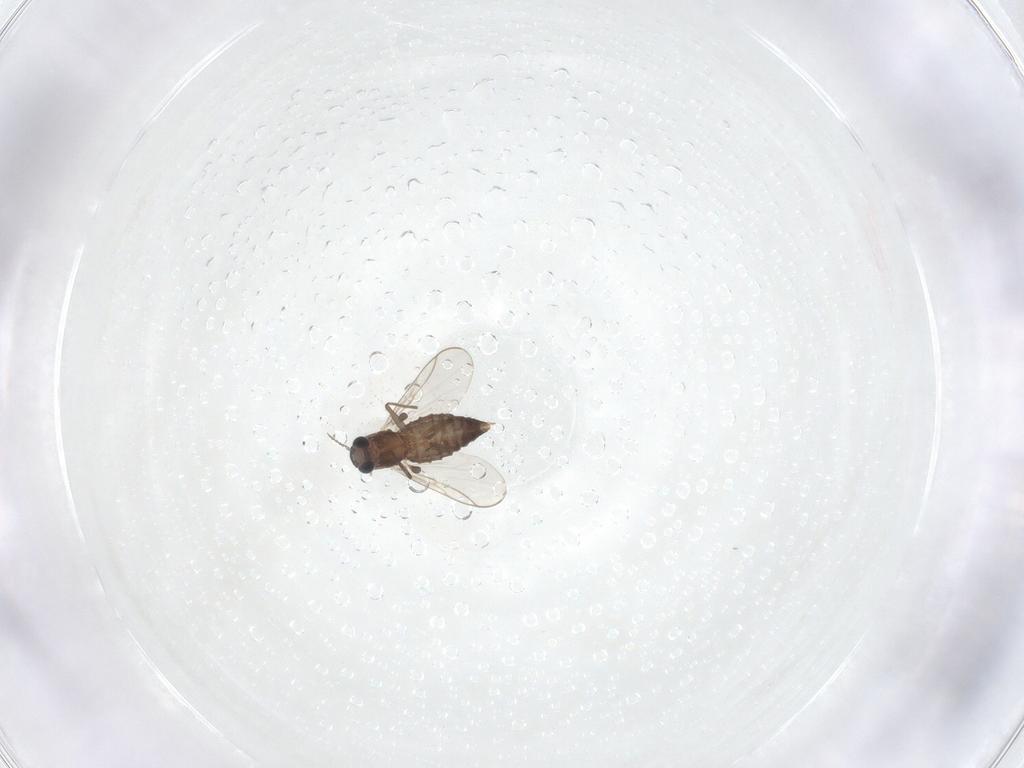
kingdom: Animalia
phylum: Arthropoda
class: Insecta
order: Diptera
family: Chironomidae
